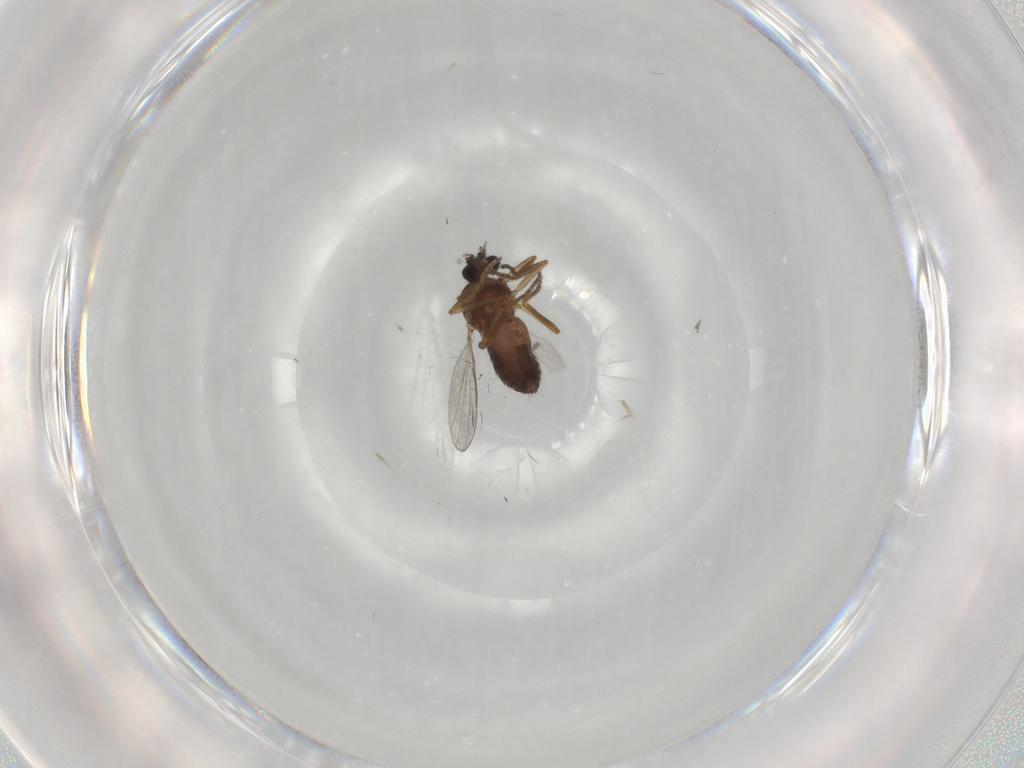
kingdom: Animalia
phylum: Arthropoda
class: Insecta
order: Diptera
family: Ceratopogonidae
